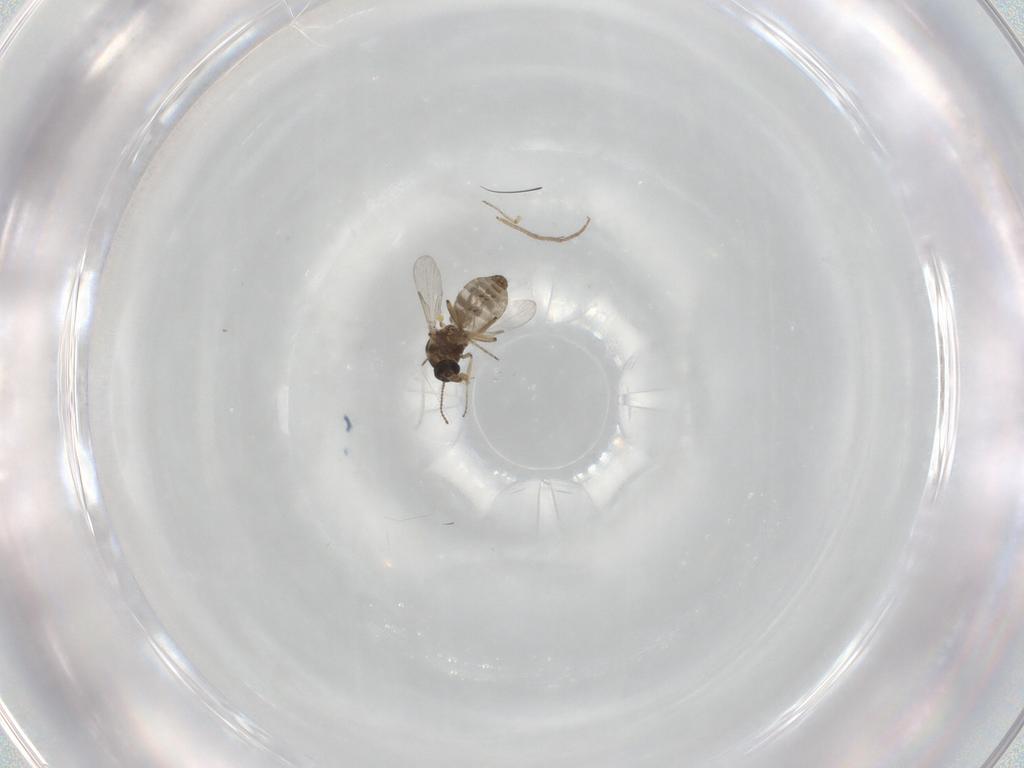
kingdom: Animalia
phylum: Arthropoda
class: Insecta
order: Diptera
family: Ceratopogonidae
